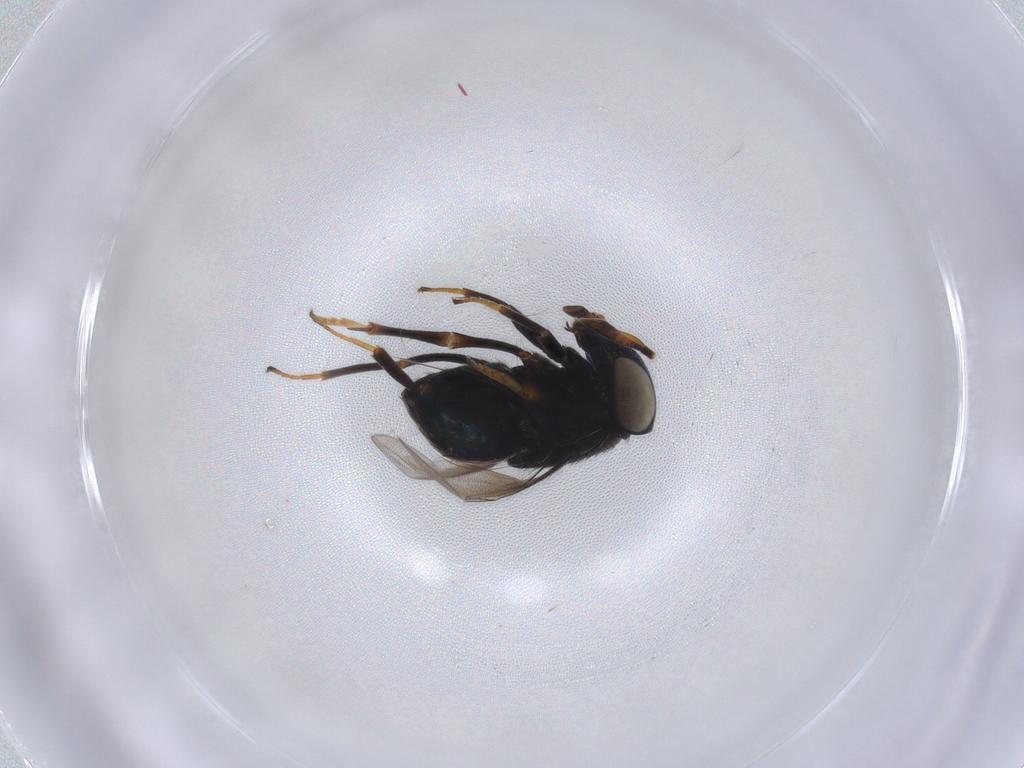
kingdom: Animalia
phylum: Arthropoda
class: Insecta
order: Hymenoptera
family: Encyrtidae
